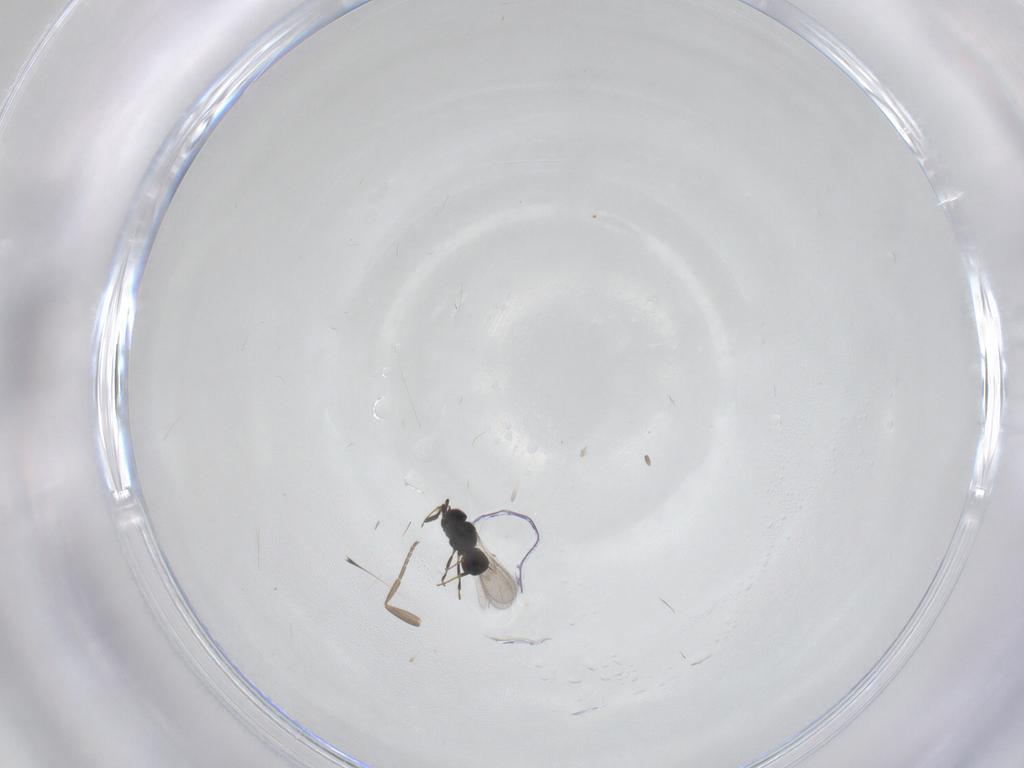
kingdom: Animalia
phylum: Arthropoda
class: Insecta
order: Hymenoptera
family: Scelionidae
